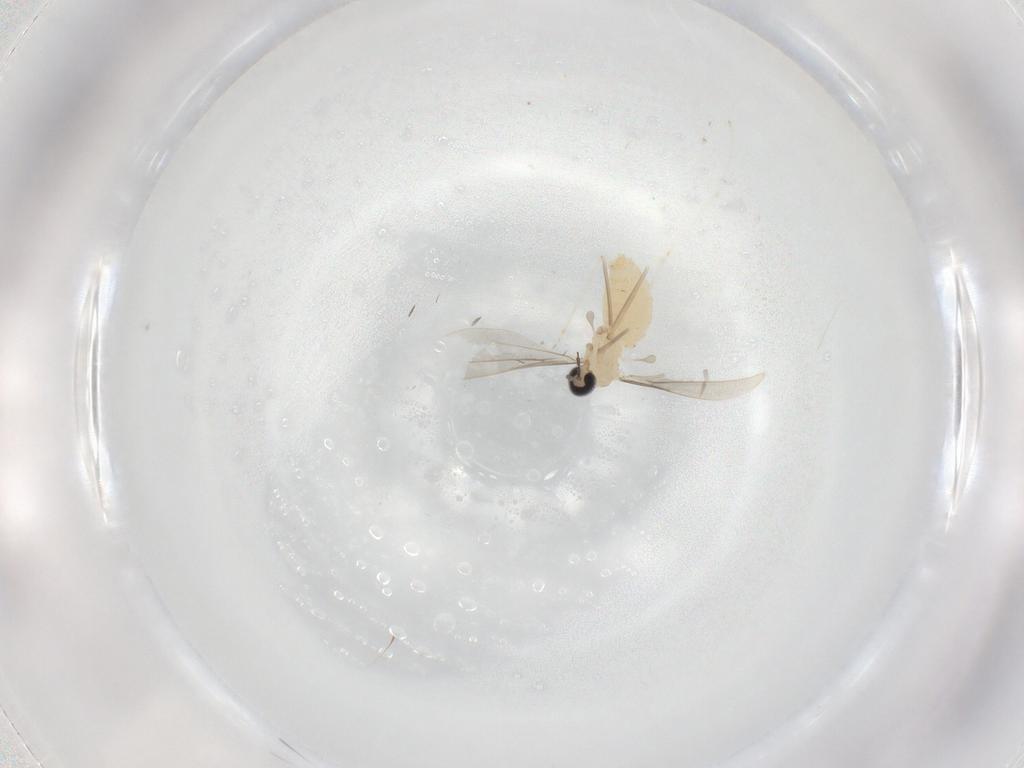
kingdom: Animalia
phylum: Arthropoda
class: Insecta
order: Diptera
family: Cecidomyiidae
